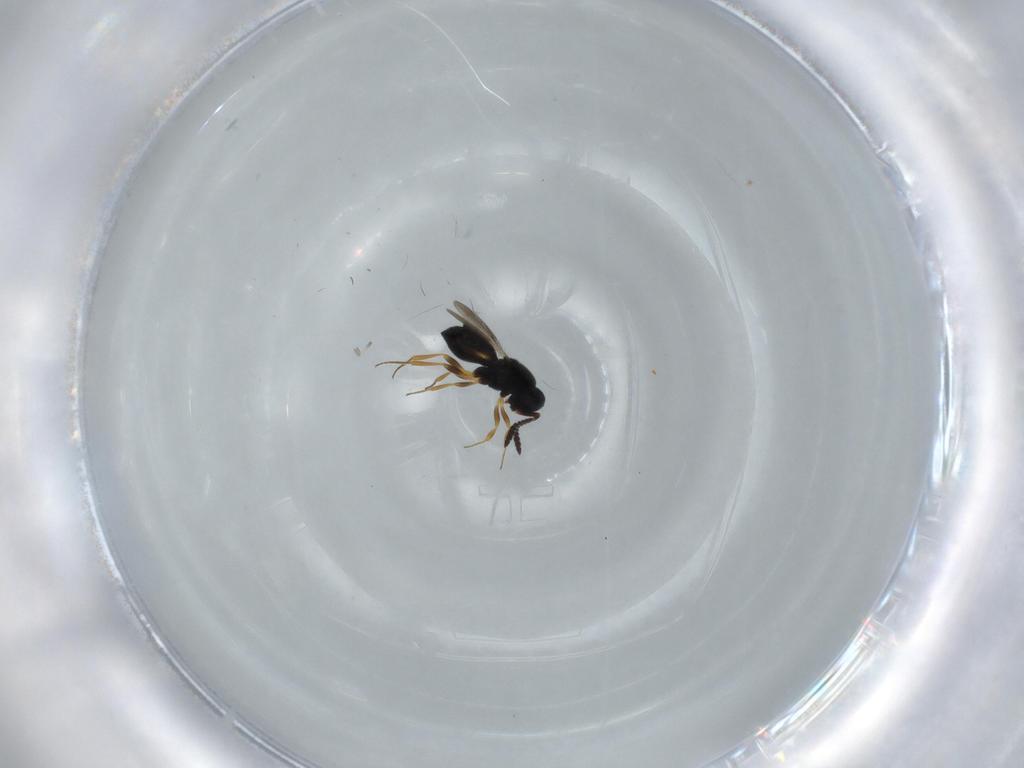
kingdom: Animalia
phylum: Arthropoda
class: Insecta
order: Hymenoptera
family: Scelionidae
